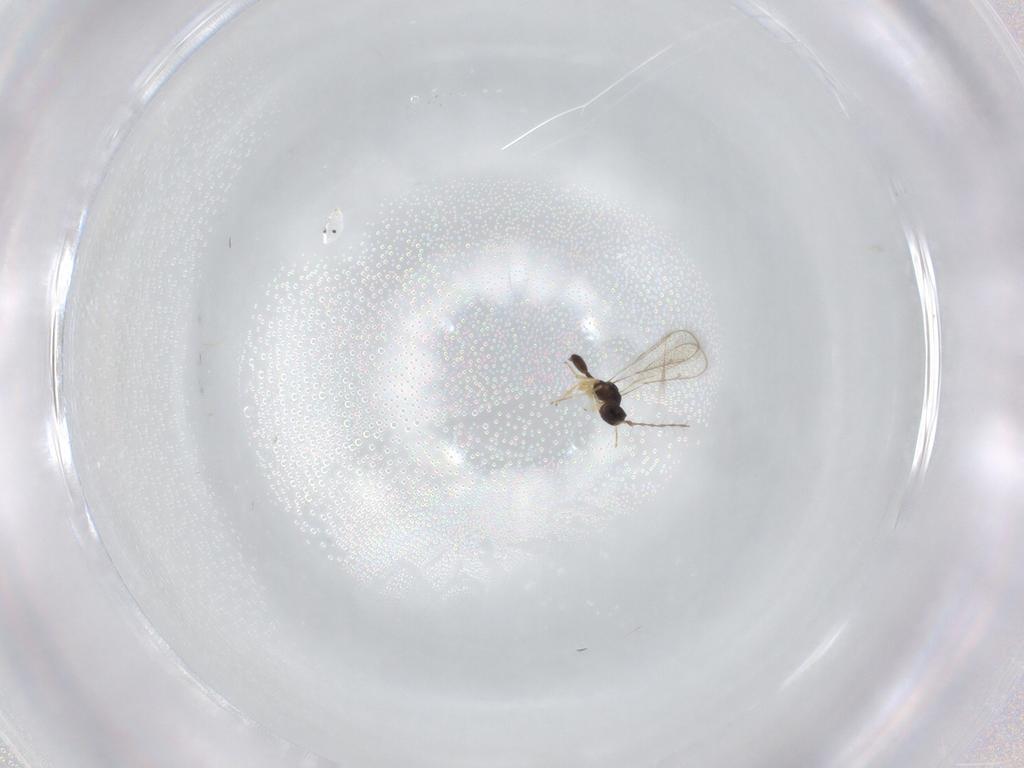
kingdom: Animalia
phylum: Arthropoda
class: Insecta
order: Hymenoptera
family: Diparidae
